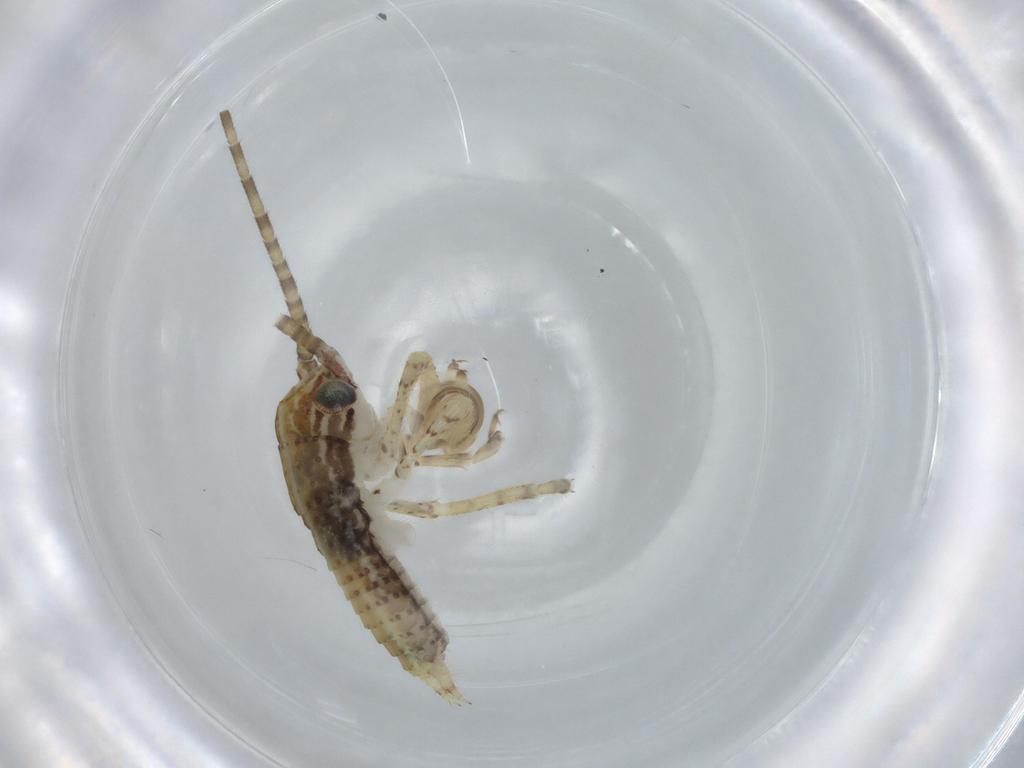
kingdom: Animalia
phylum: Arthropoda
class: Insecta
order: Orthoptera
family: Gryllidae
